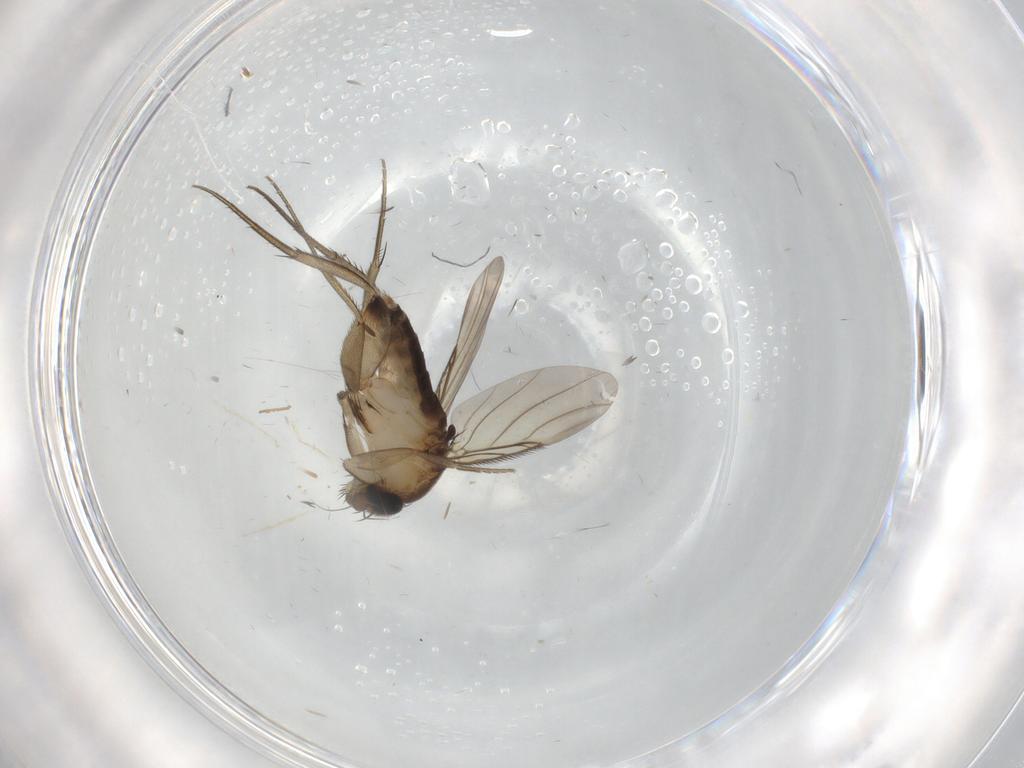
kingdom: Animalia
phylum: Arthropoda
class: Insecta
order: Diptera
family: Phoridae
